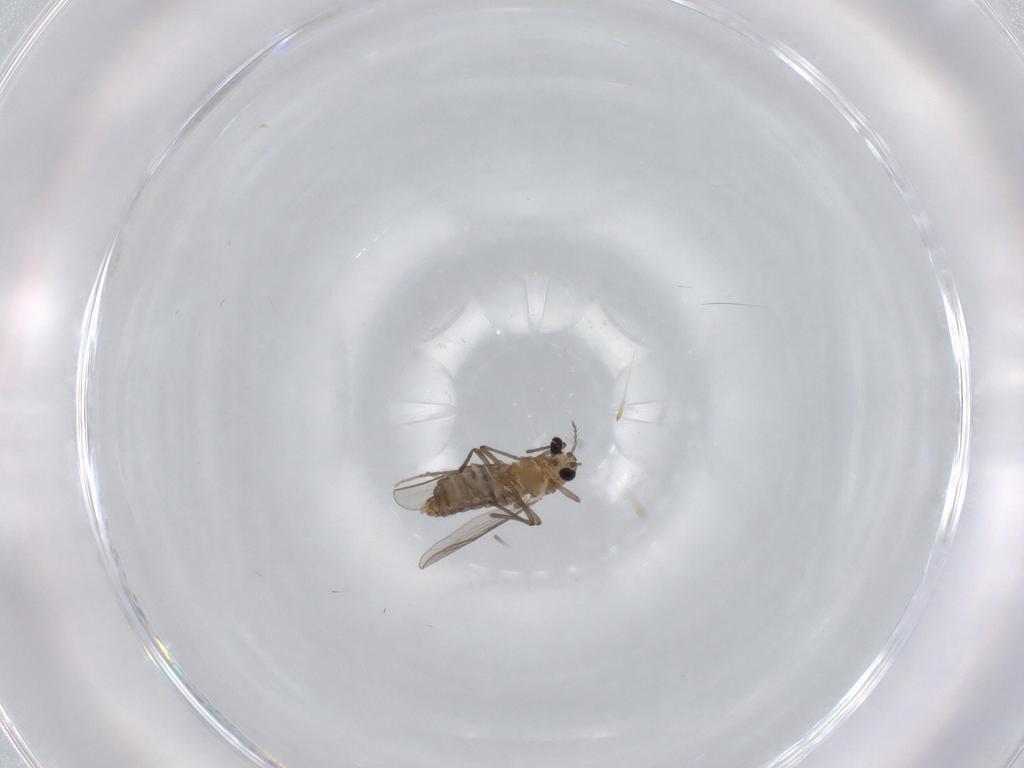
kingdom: Animalia
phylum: Arthropoda
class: Insecta
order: Diptera
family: Chironomidae
